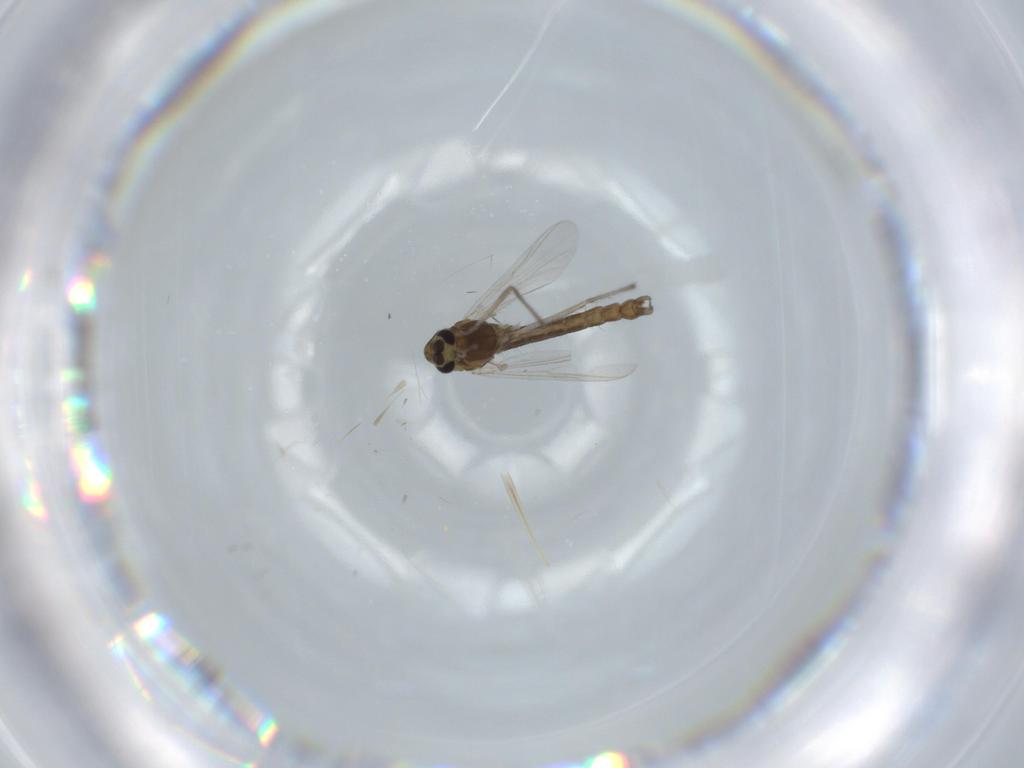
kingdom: Animalia
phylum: Arthropoda
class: Insecta
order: Diptera
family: Chironomidae
